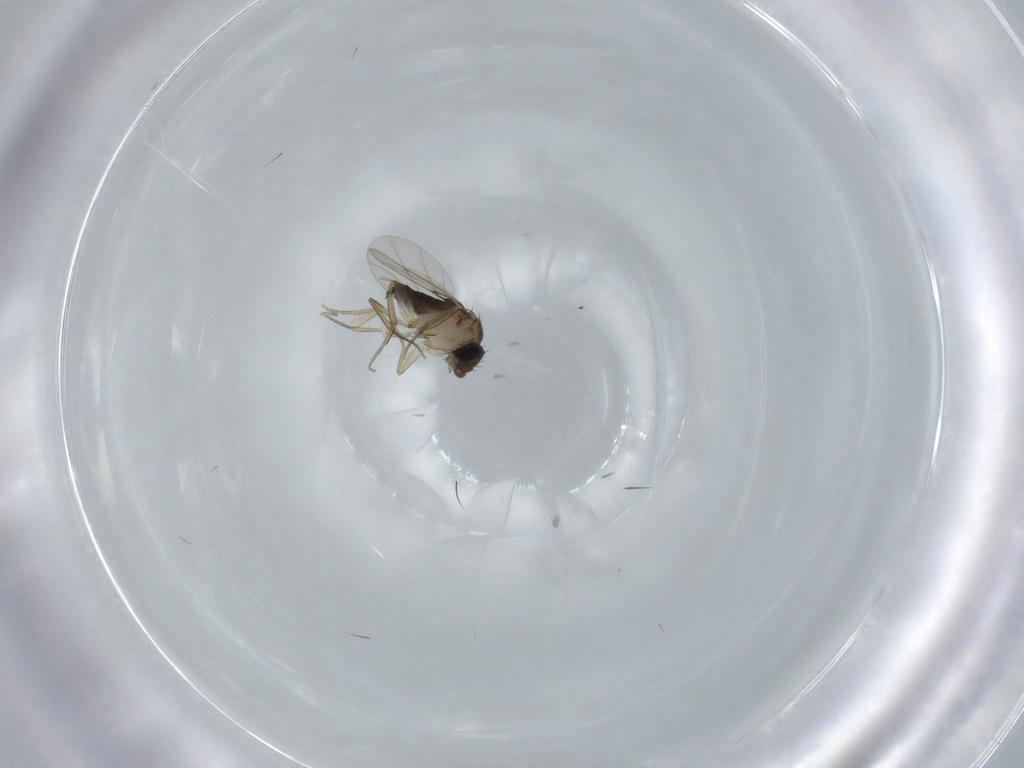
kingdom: Animalia
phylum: Arthropoda
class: Insecta
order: Diptera
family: Phoridae
